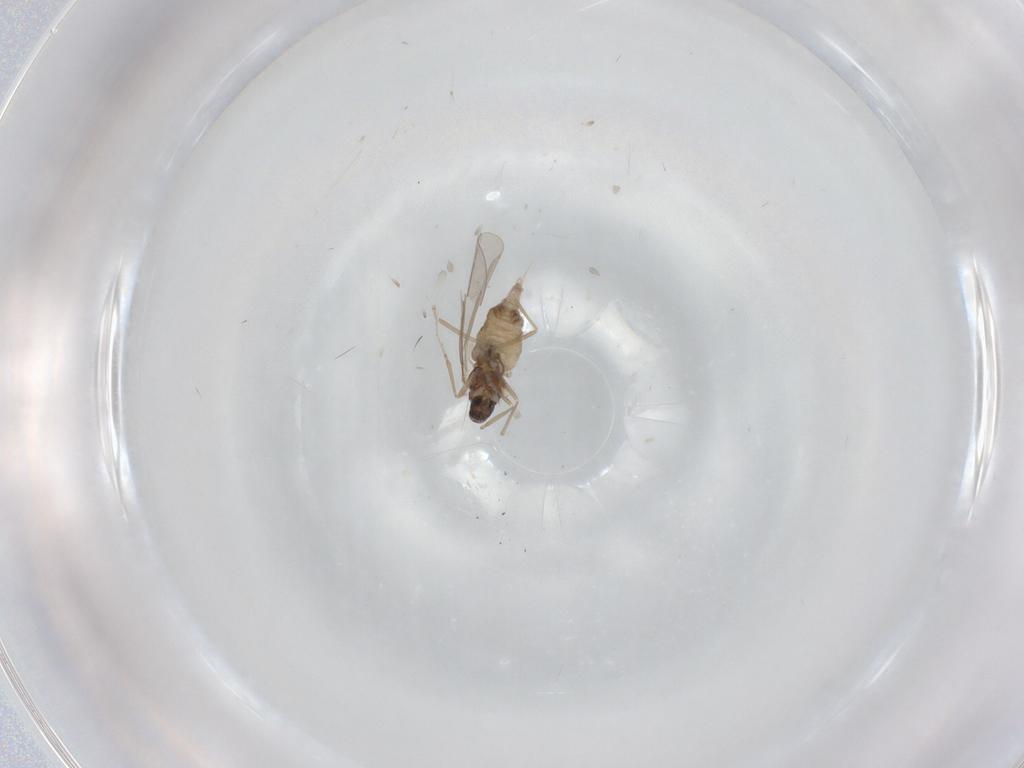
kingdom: Animalia
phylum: Arthropoda
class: Insecta
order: Diptera
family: Cecidomyiidae
